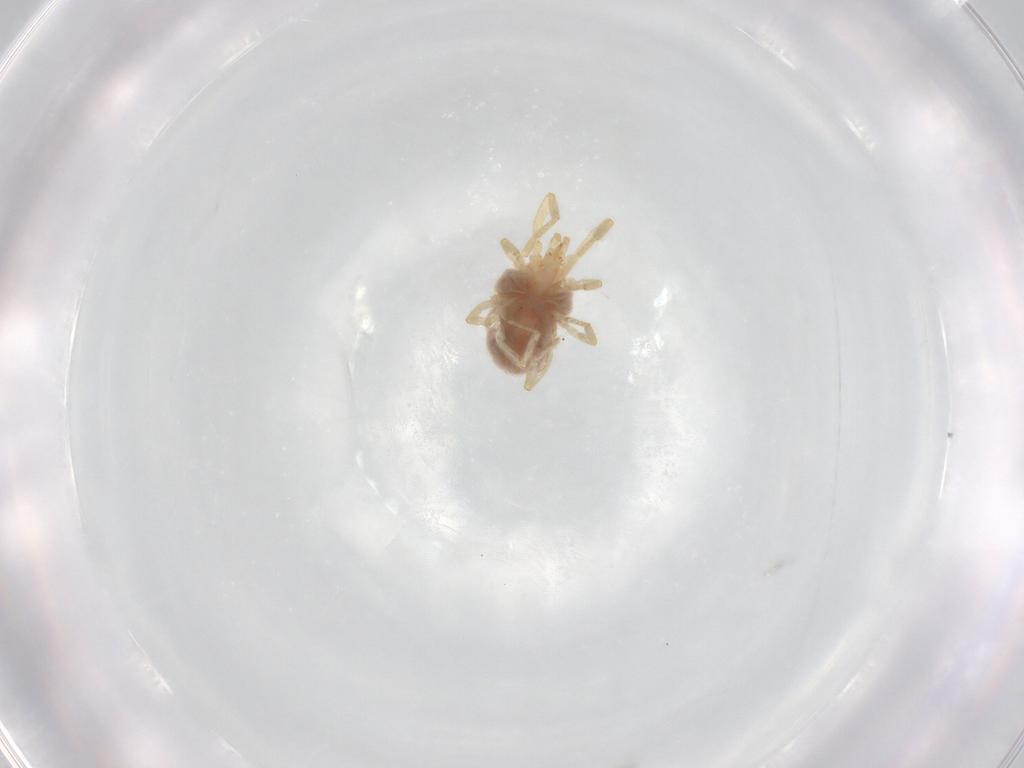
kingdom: Animalia
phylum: Arthropoda
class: Arachnida
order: Trombidiformes
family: Erythraeidae
